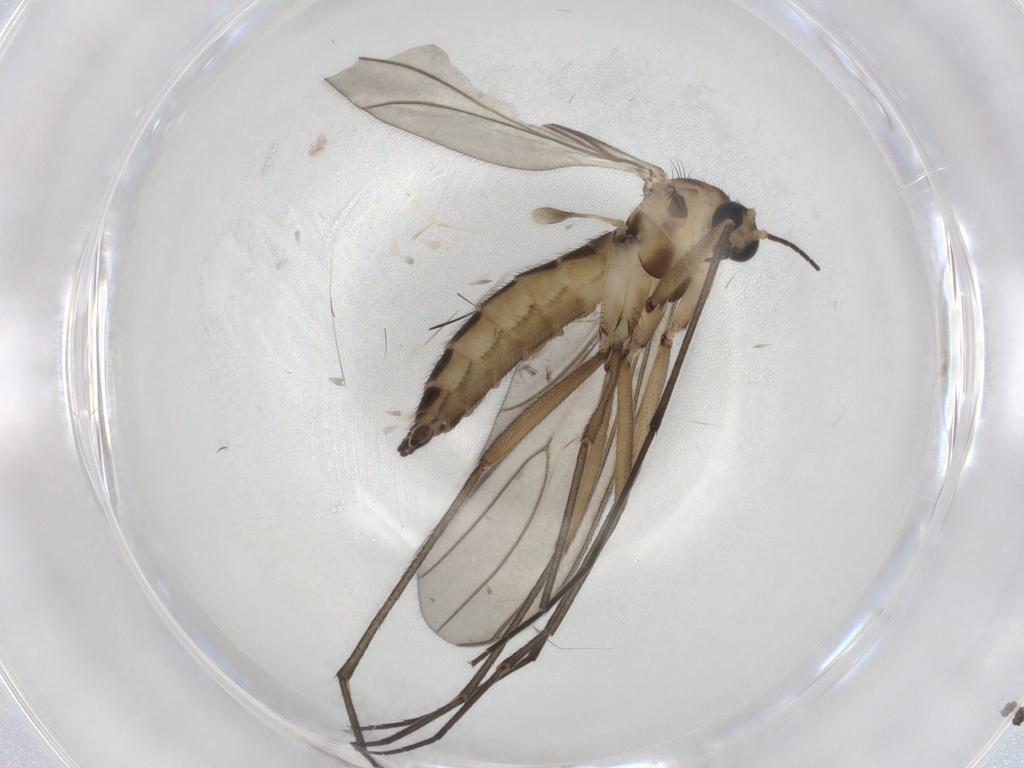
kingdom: Animalia
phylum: Arthropoda
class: Insecta
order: Diptera
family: Sciaridae
